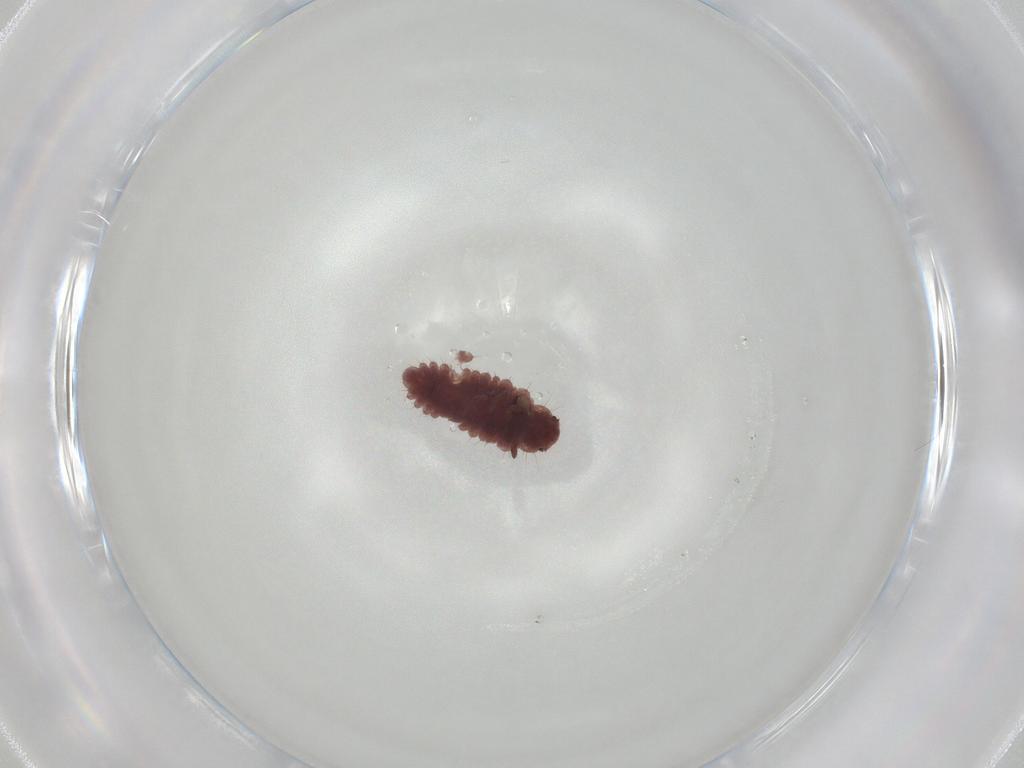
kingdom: Animalia
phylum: Arthropoda
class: Insecta
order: Coleoptera
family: Coccinellidae
